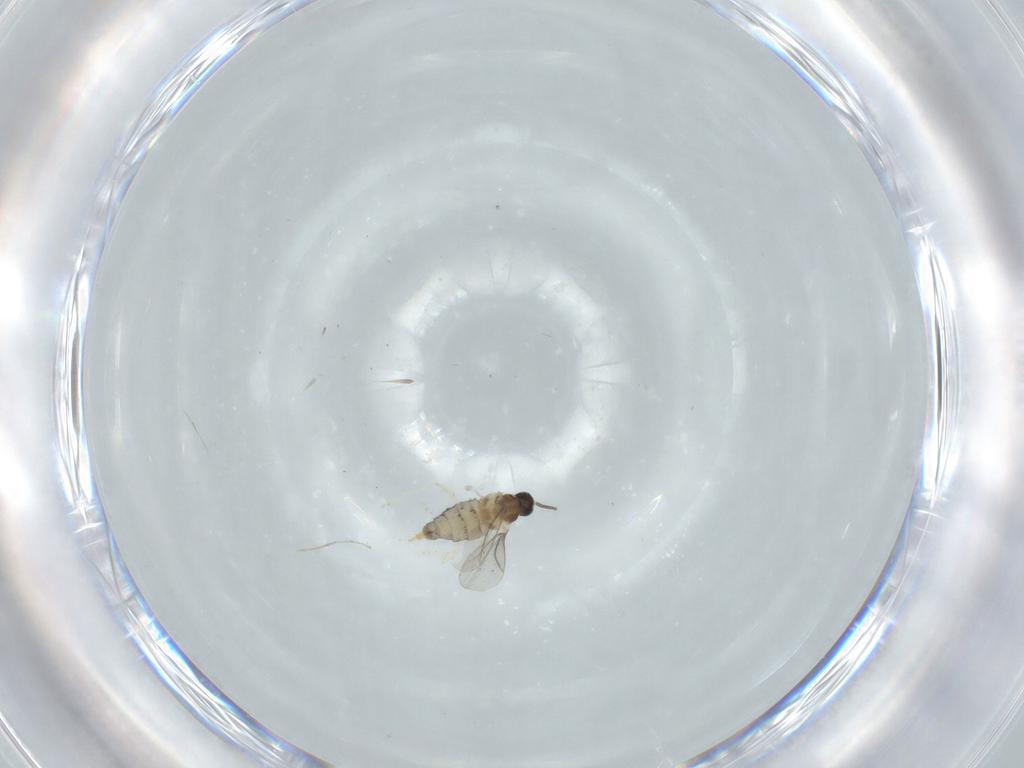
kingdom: Animalia
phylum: Arthropoda
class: Insecta
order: Diptera
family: Cecidomyiidae
